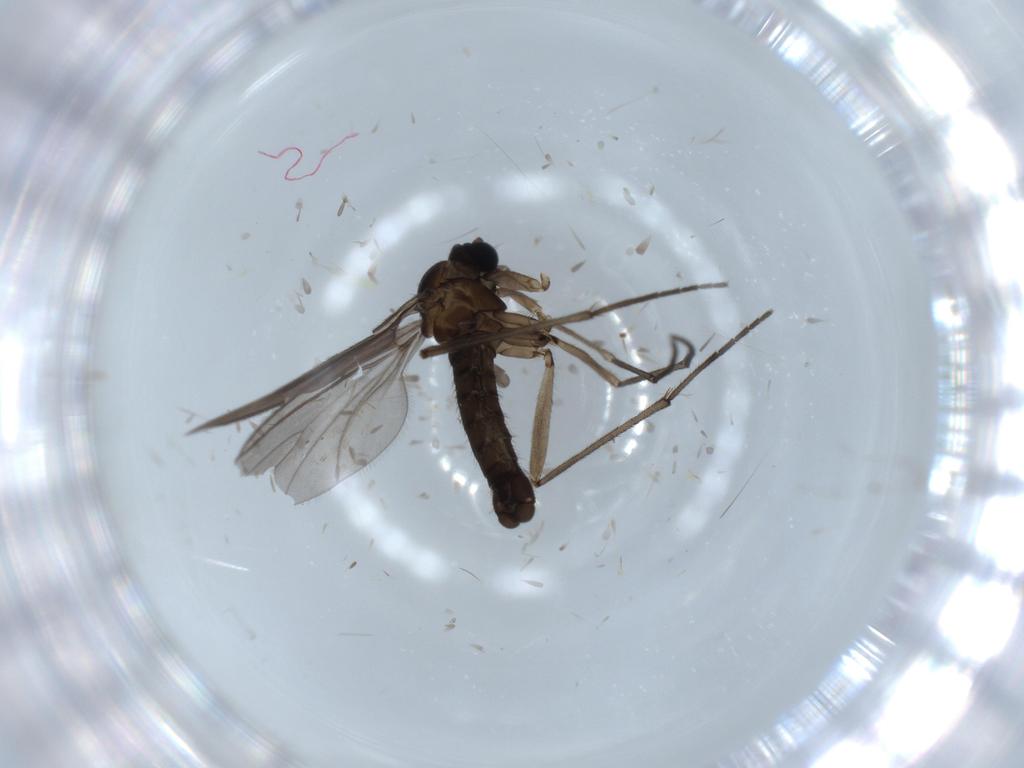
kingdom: Animalia
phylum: Arthropoda
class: Insecta
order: Diptera
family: Sciaridae
